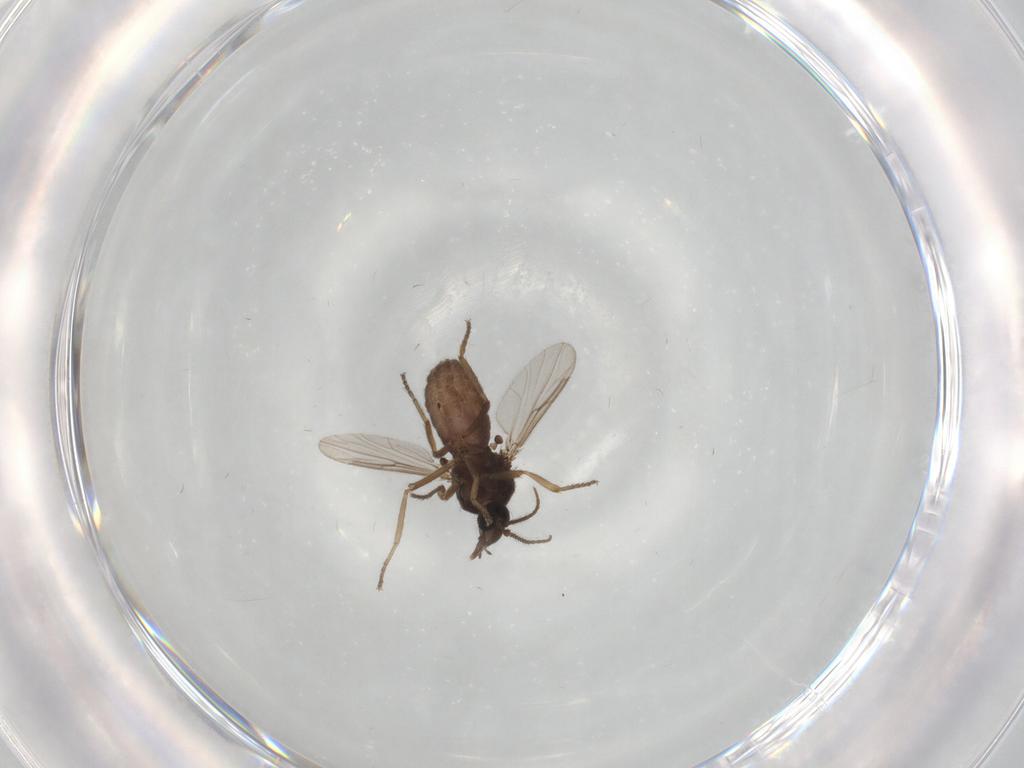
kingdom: Animalia
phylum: Arthropoda
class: Insecta
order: Diptera
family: Ceratopogonidae
